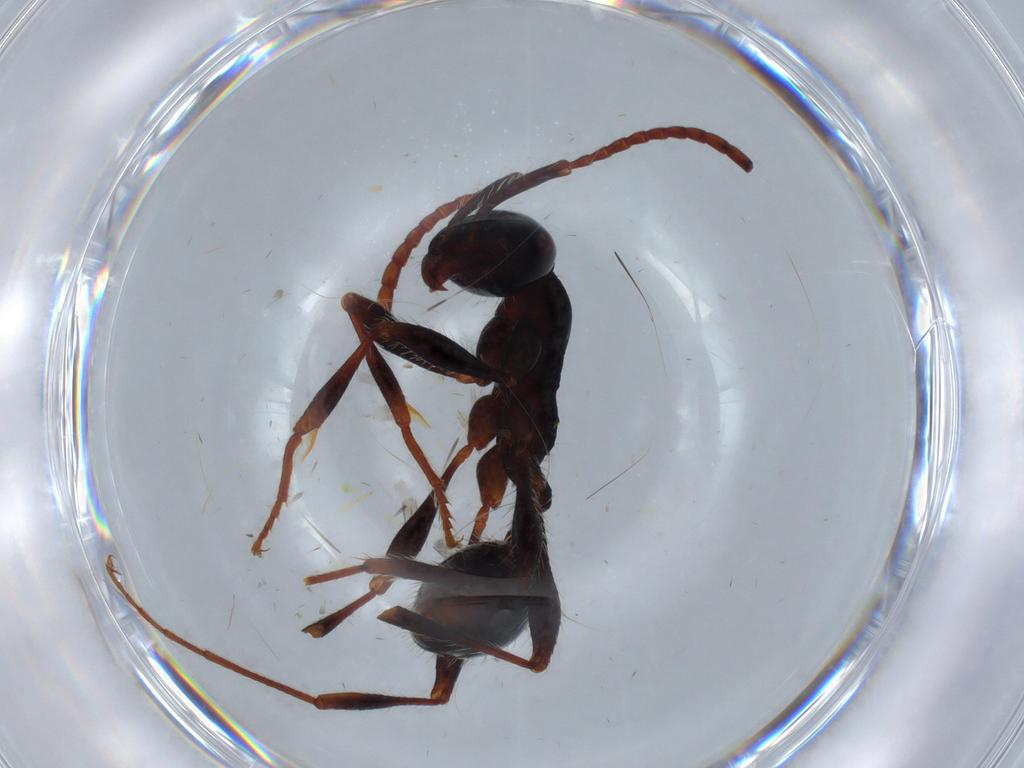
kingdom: Animalia
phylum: Arthropoda
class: Insecta
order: Hymenoptera
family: Formicidae
